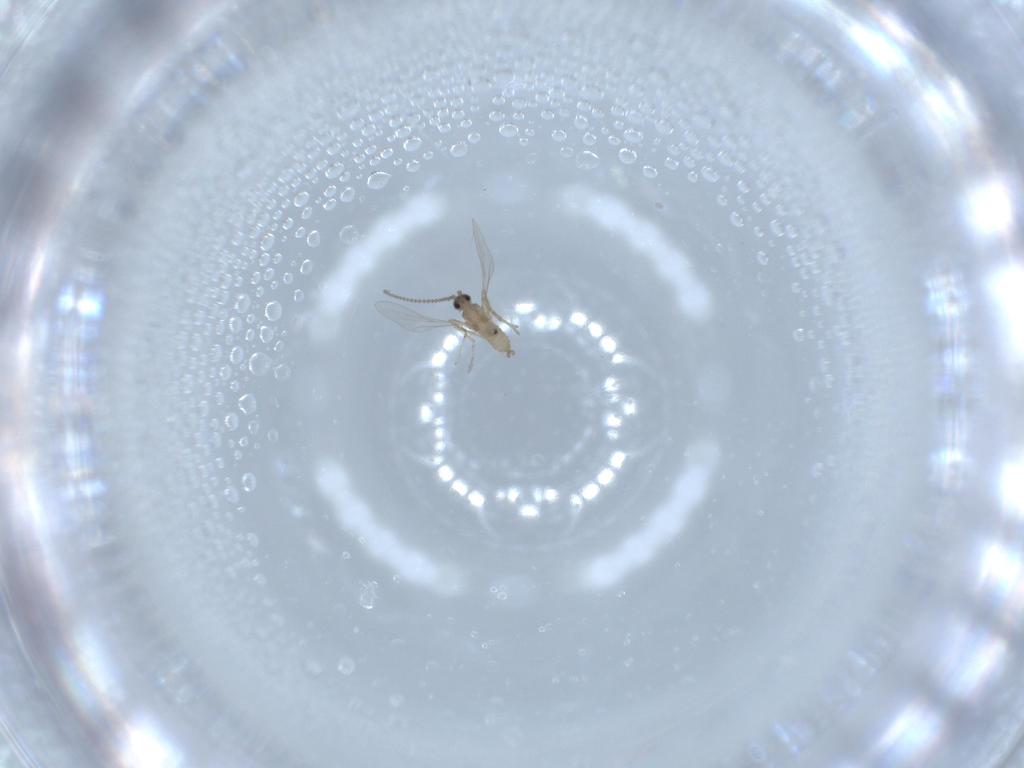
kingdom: Animalia
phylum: Arthropoda
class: Insecta
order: Diptera
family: Cecidomyiidae
